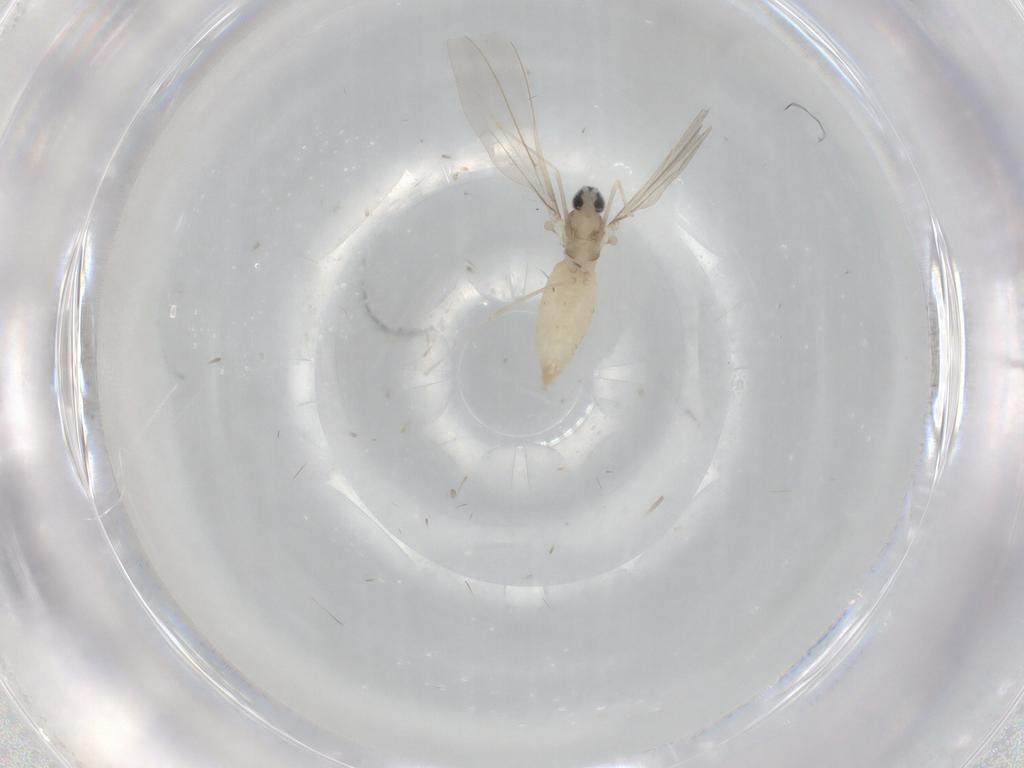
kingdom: Animalia
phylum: Arthropoda
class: Insecta
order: Diptera
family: Cecidomyiidae
